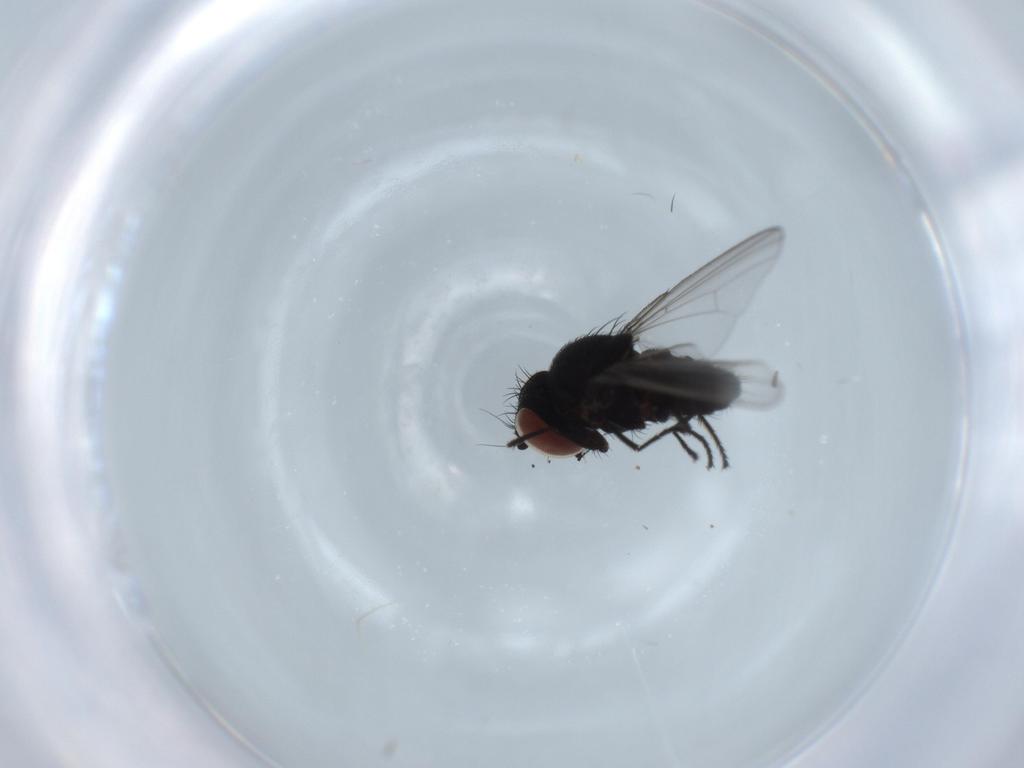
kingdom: Animalia
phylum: Arthropoda
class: Insecta
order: Diptera
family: Milichiidae
